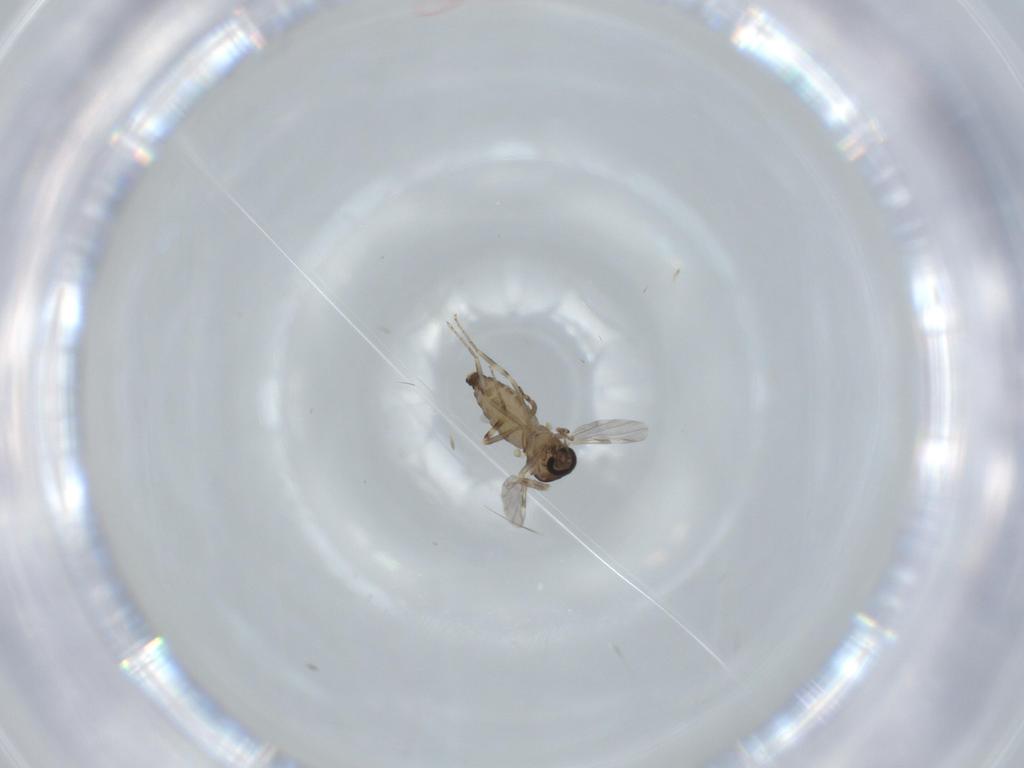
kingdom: Animalia
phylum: Arthropoda
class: Insecta
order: Diptera
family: Ceratopogonidae
